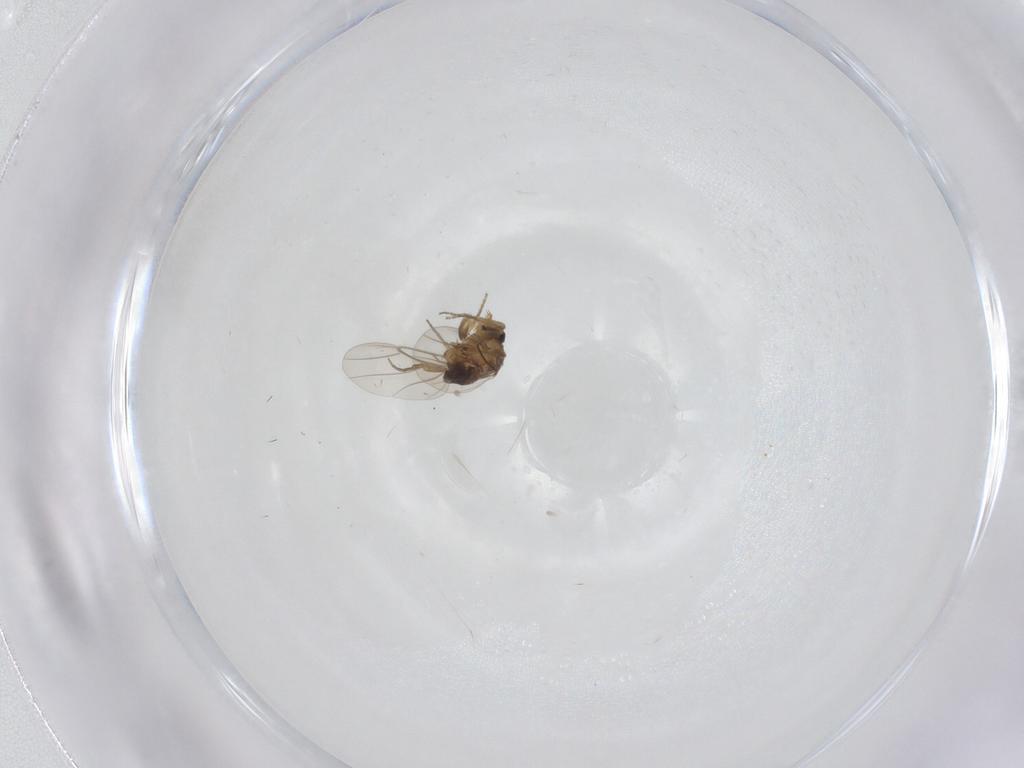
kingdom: Animalia
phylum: Arthropoda
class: Insecta
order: Diptera
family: Phoridae
